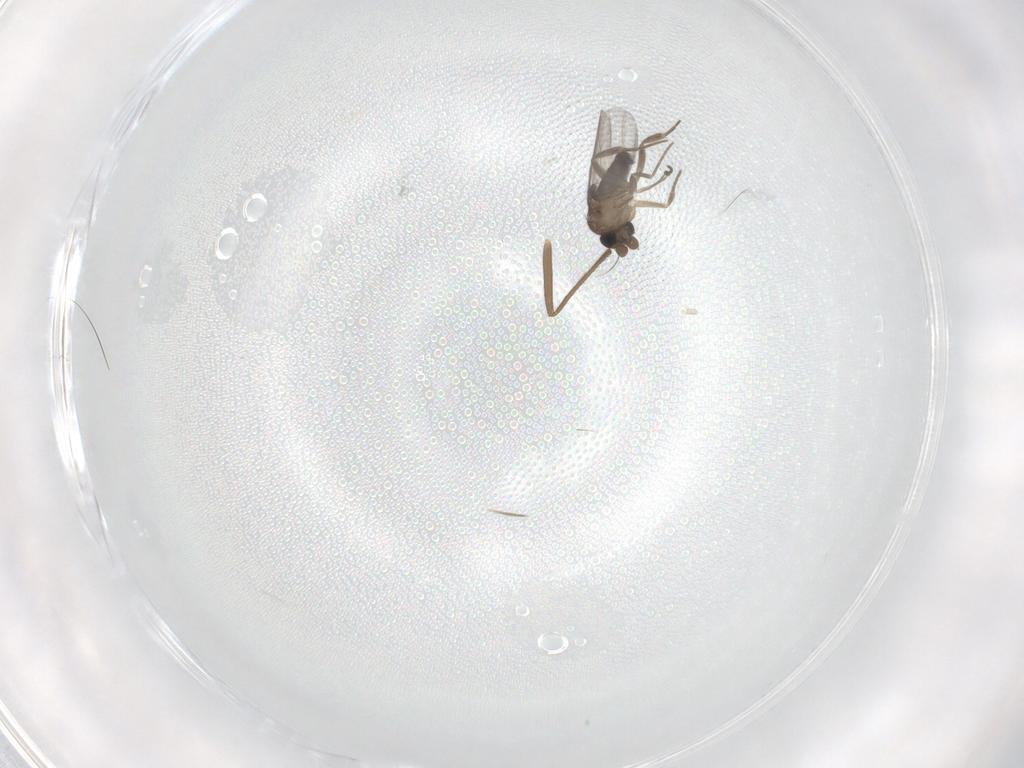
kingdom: Animalia
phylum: Arthropoda
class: Insecta
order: Diptera
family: Chironomidae
